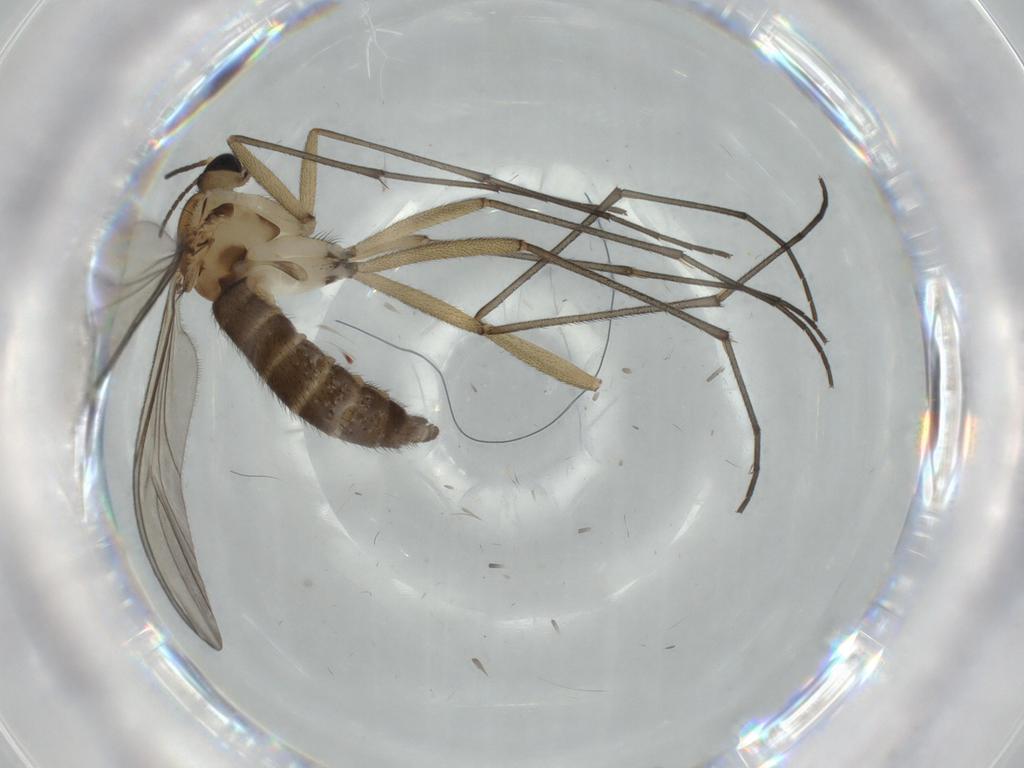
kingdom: Animalia
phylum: Arthropoda
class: Insecta
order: Diptera
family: Sciaridae
